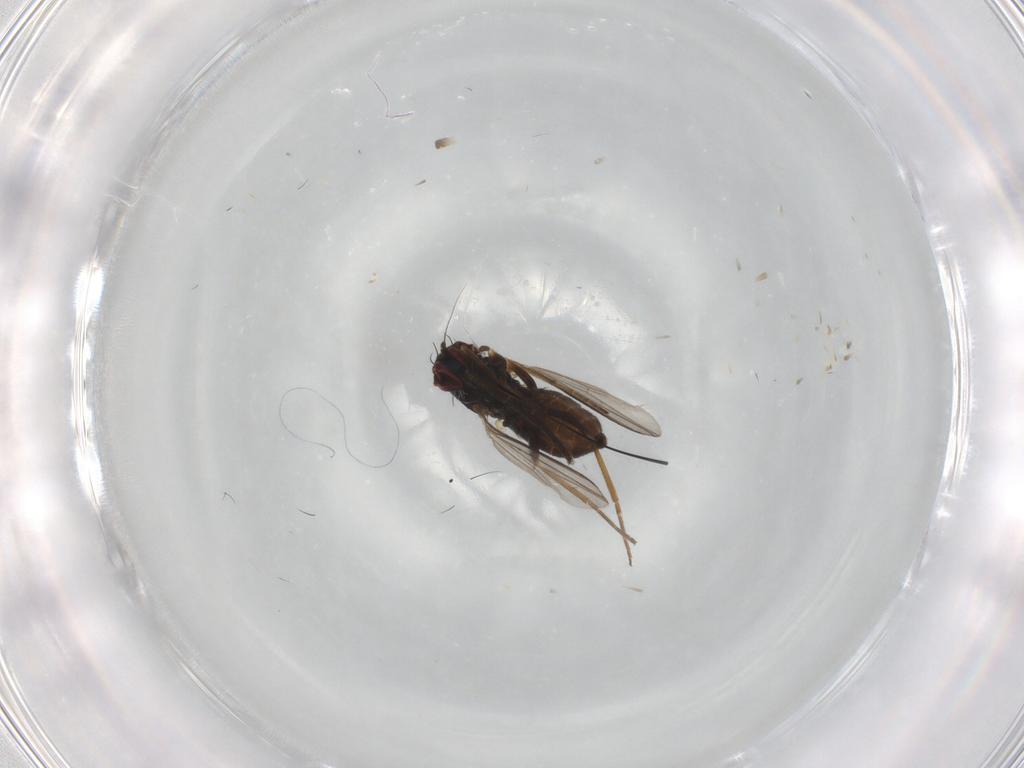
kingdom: Animalia
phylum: Arthropoda
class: Insecta
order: Diptera
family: Dolichopodidae
